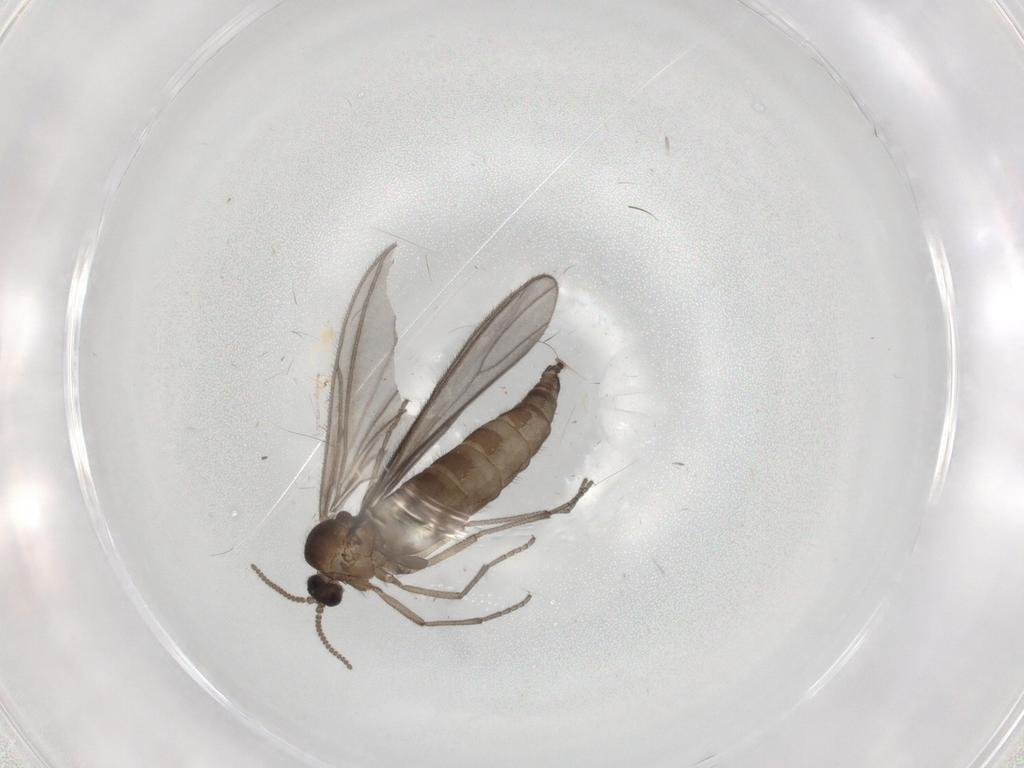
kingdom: Animalia
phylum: Arthropoda
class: Insecta
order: Diptera
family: Sciaridae
